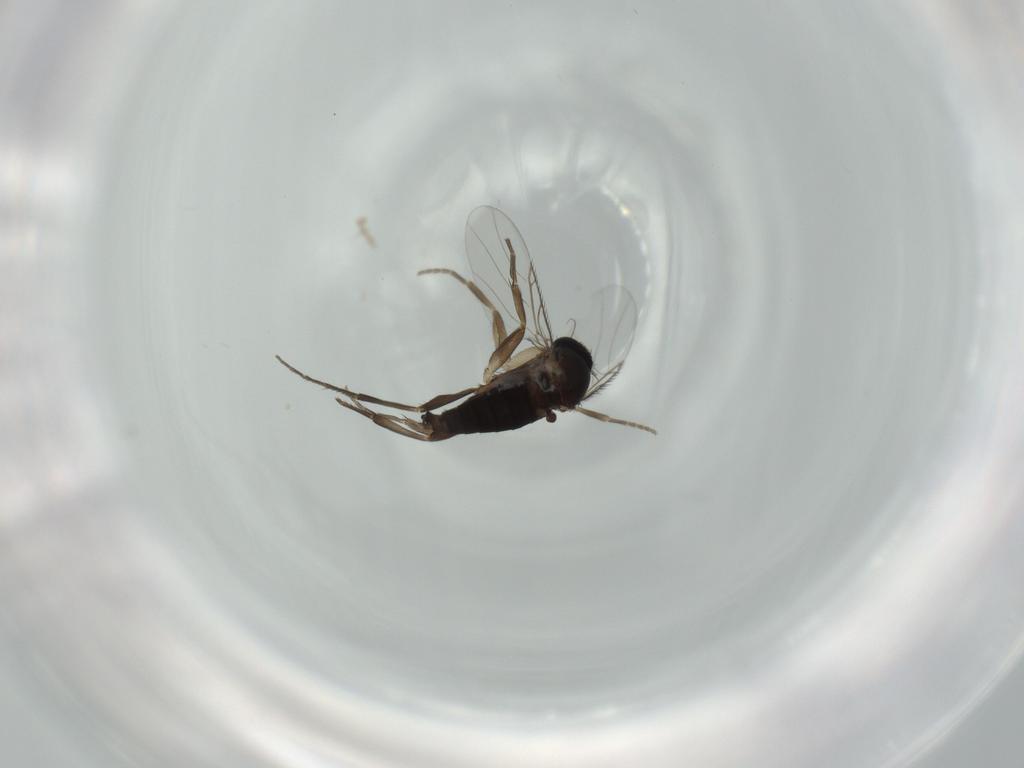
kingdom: Animalia
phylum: Arthropoda
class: Insecta
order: Diptera
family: Phoridae
